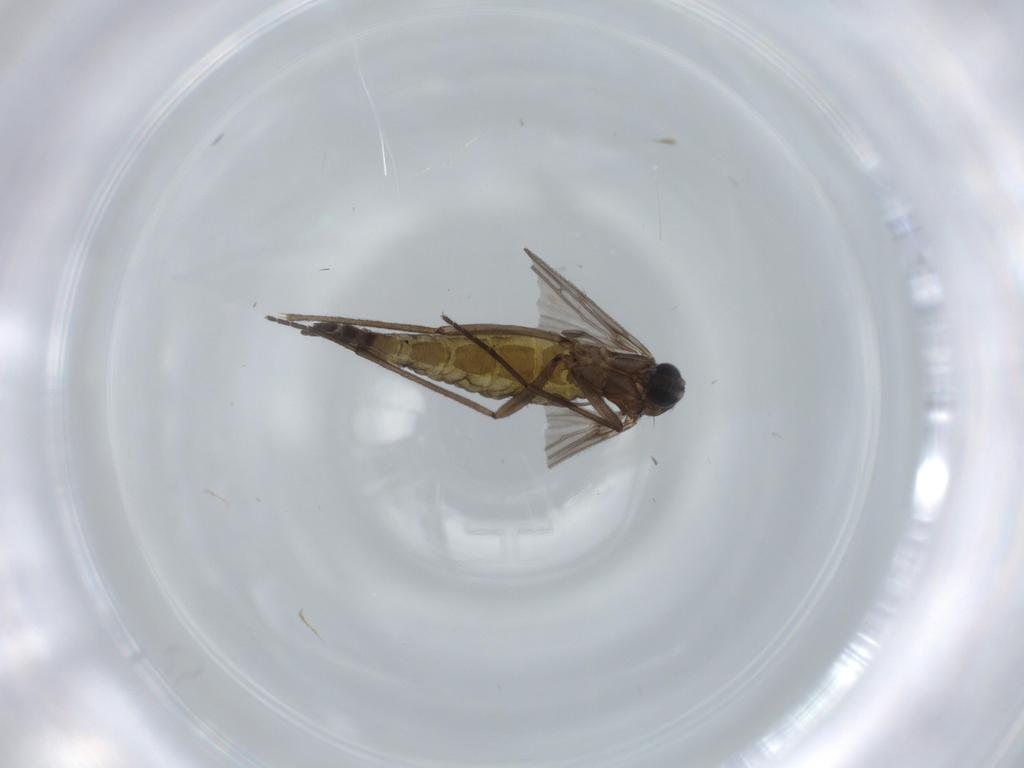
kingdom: Animalia
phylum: Arthropoda
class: Insecta
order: Diptera
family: Sciaridae
